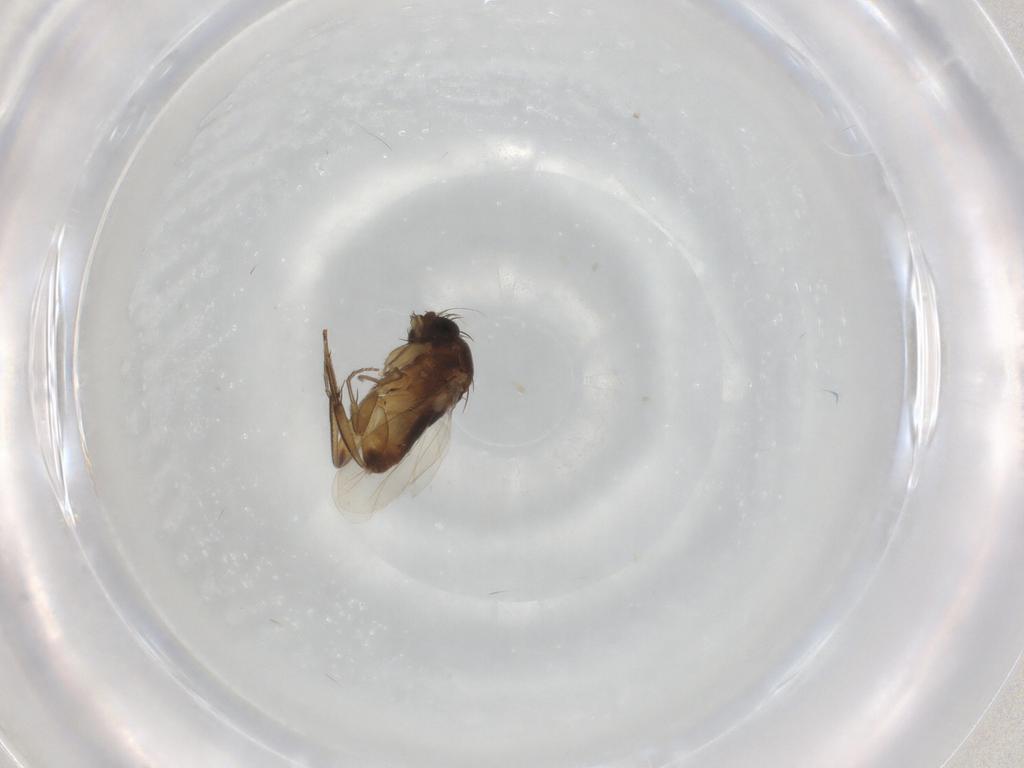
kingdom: Animalia
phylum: Arthropoda
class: Insecta
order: Diptera
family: Phoridae
